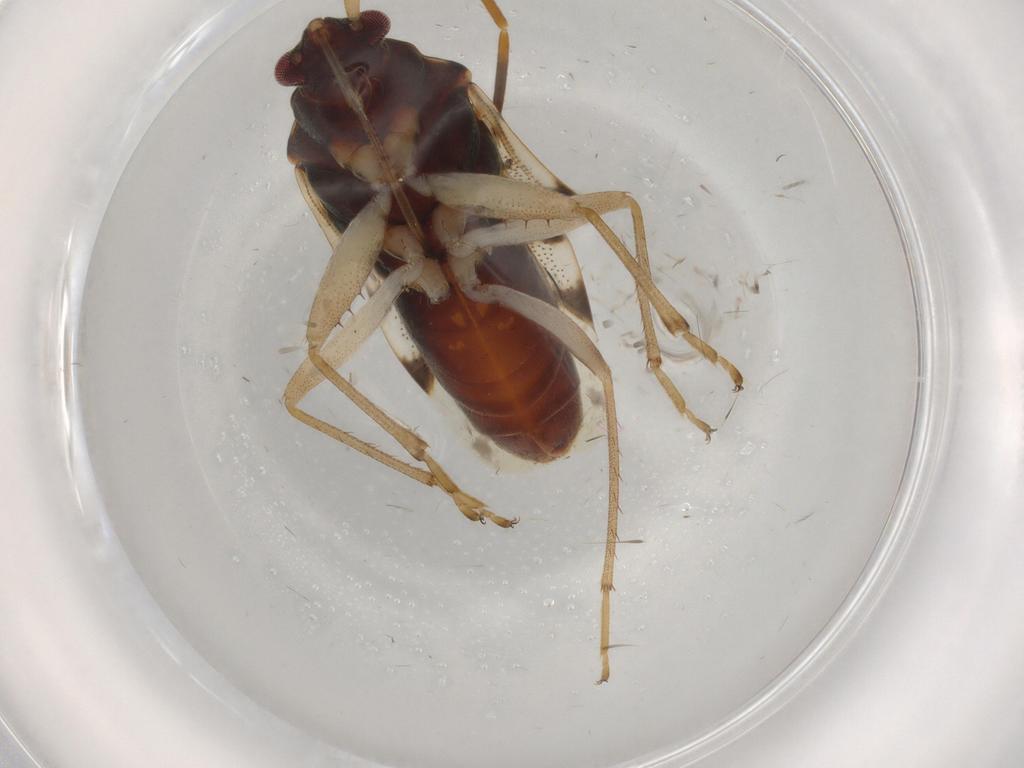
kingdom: Animalia
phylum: Arthropoda
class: Insecta
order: Hemiptera
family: Rhyparochromidae
